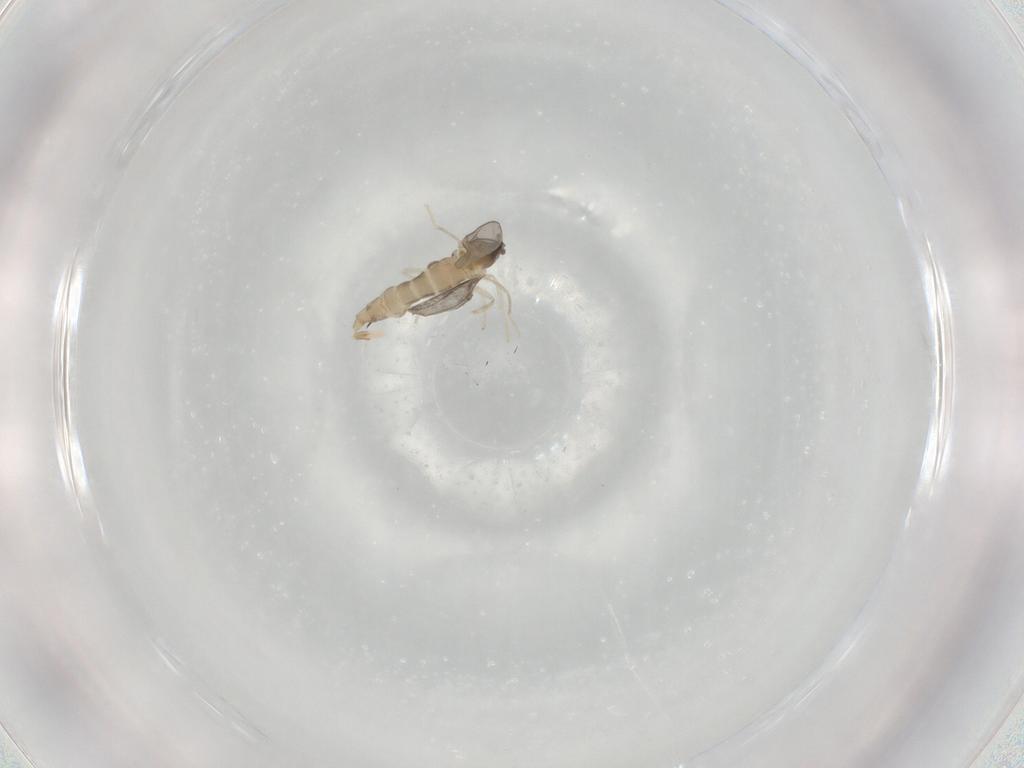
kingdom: Animalia
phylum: Arthropoda
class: Insecta
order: Diptera
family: Cecidomyiidae
